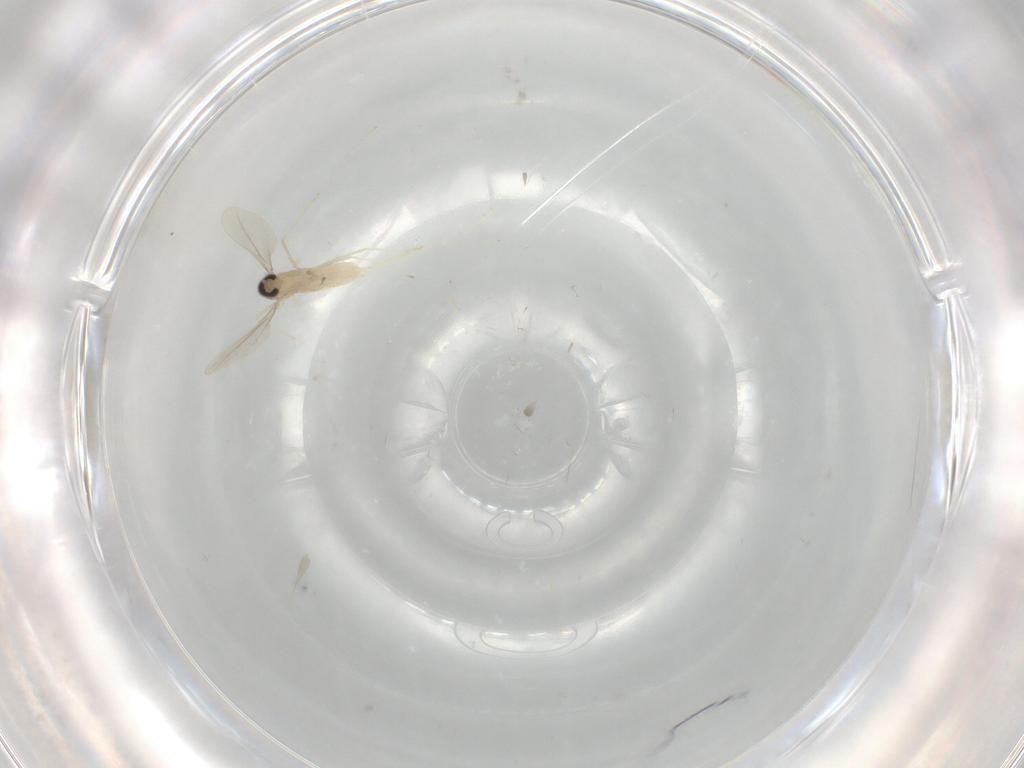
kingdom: Animalia
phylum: Arthropoda
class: Insecta
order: Diptera
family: Cecidomyiidae
